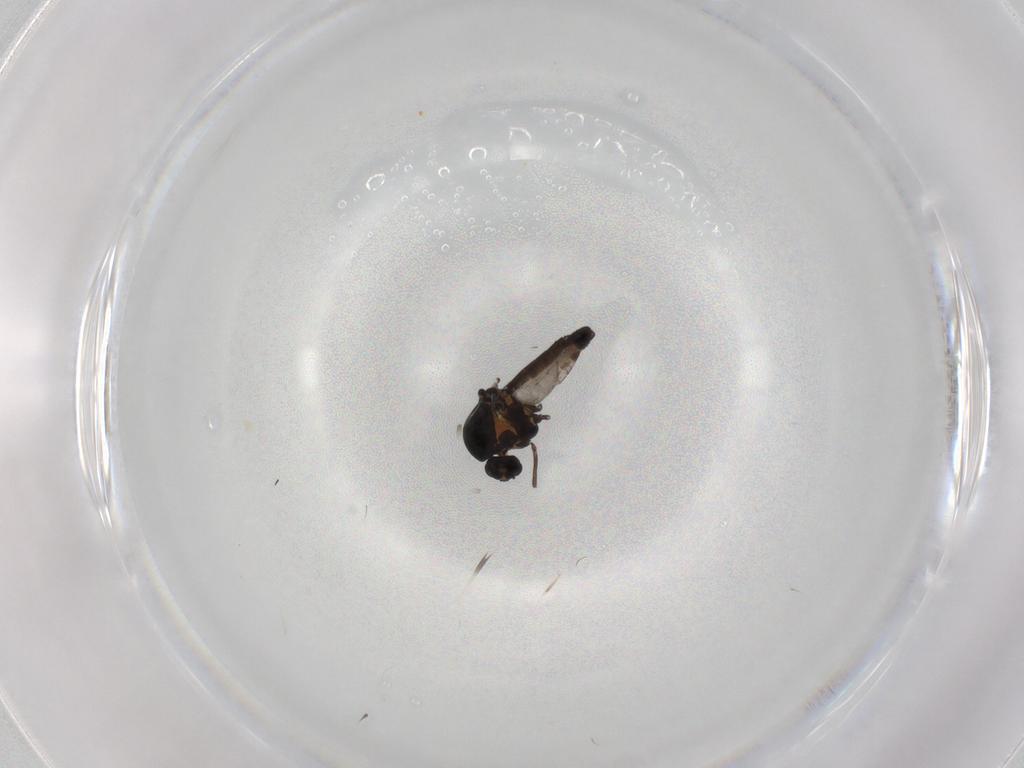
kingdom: Animalia
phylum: Arthropoda
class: Insecta
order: Diptera
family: Ceratopogonidae
